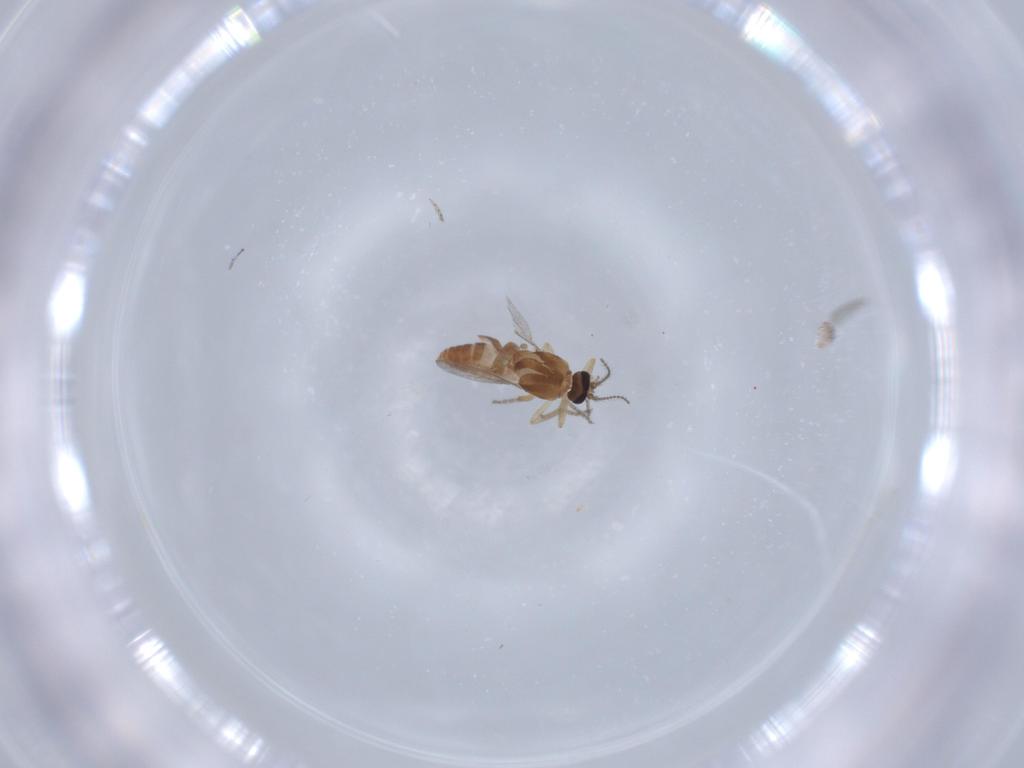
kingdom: Animalia
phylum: Arthropoda
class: Insecta
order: Diptera
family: Ceratopogonidae
